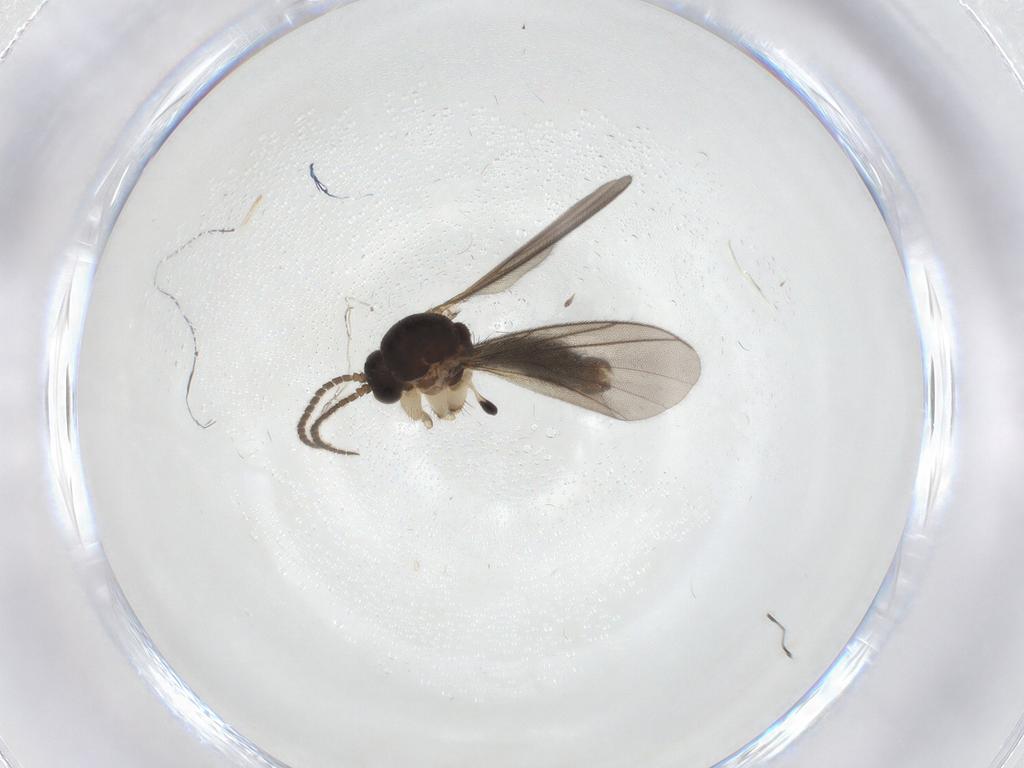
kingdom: Animalia
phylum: Arthropoda
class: Insecta
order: Diptera
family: Mycetophilidae
